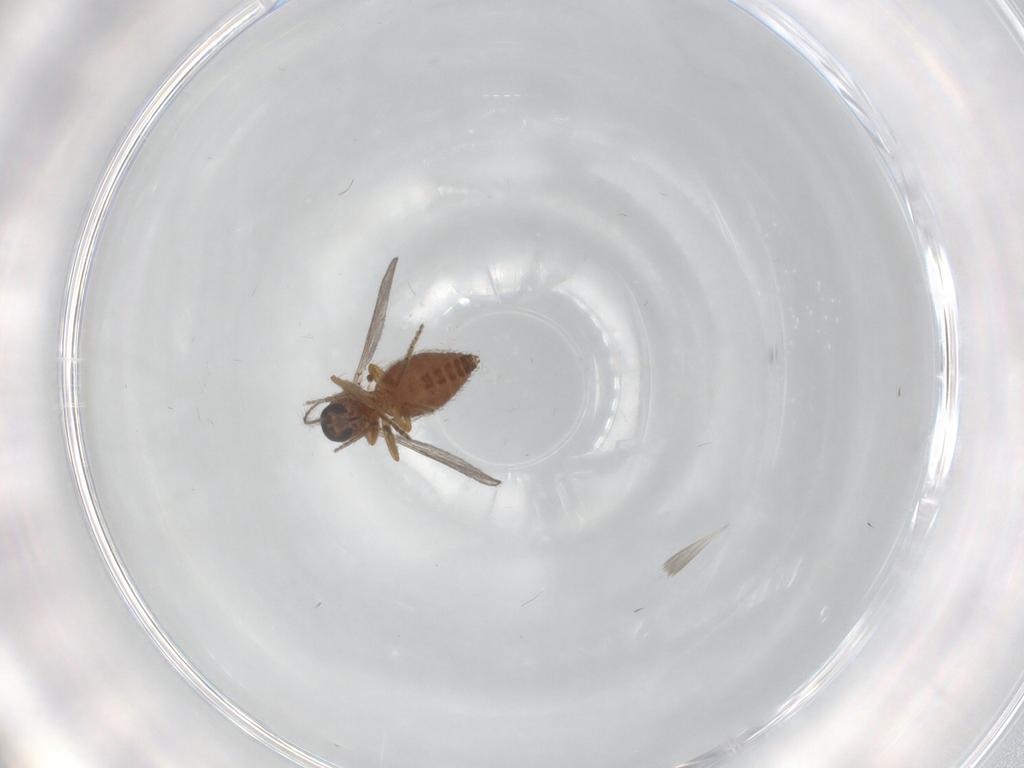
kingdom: Animalia
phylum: Arthropoda
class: Insecta
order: Diptera
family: Ceratopogonidae
